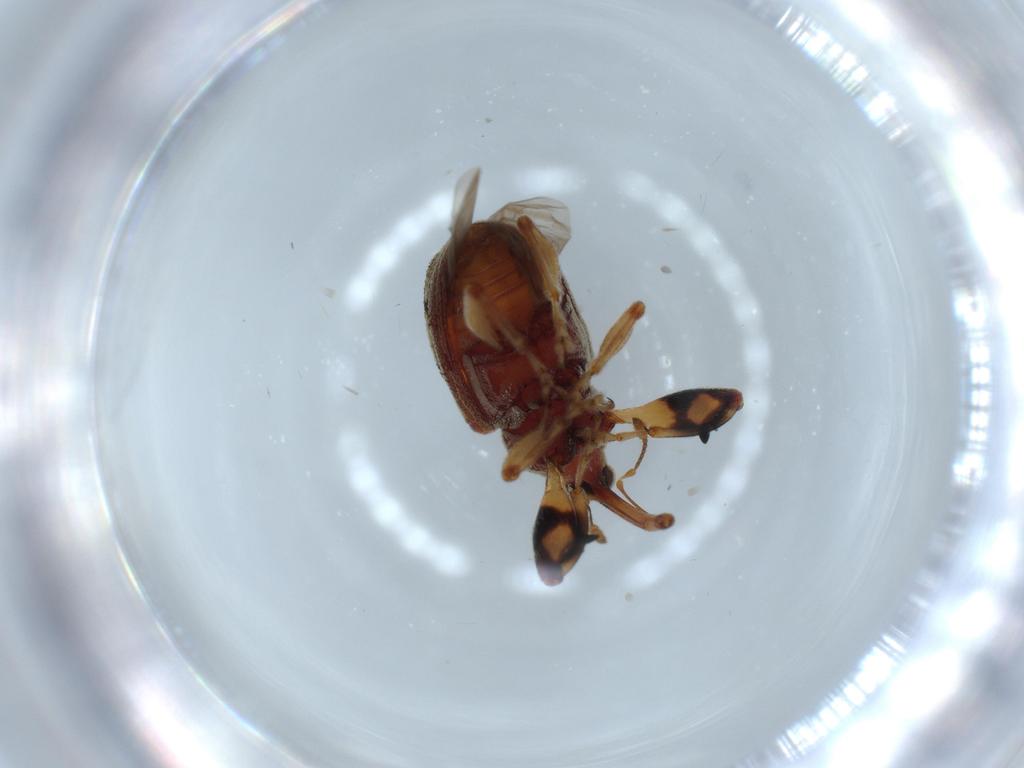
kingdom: Animalia
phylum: Arthropoda
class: Insecta
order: Coleoptera
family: Curculionidae
